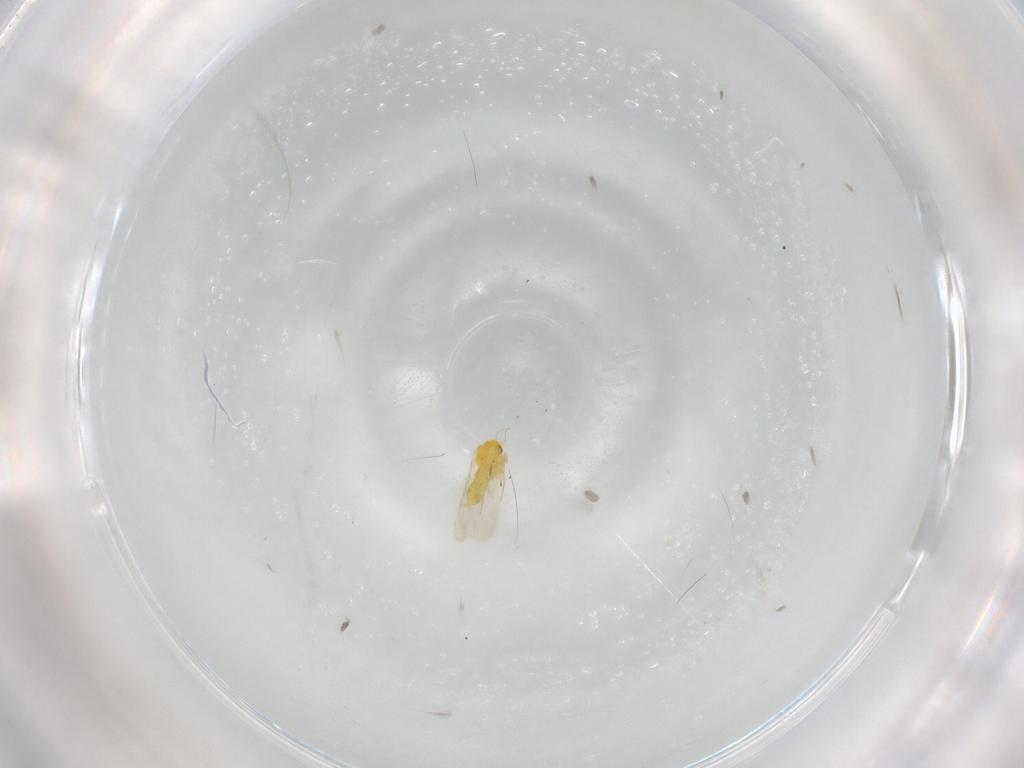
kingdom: Animalia
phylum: Arthropoda
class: Insecta
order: Hemiptera
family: Aleyrodidae
